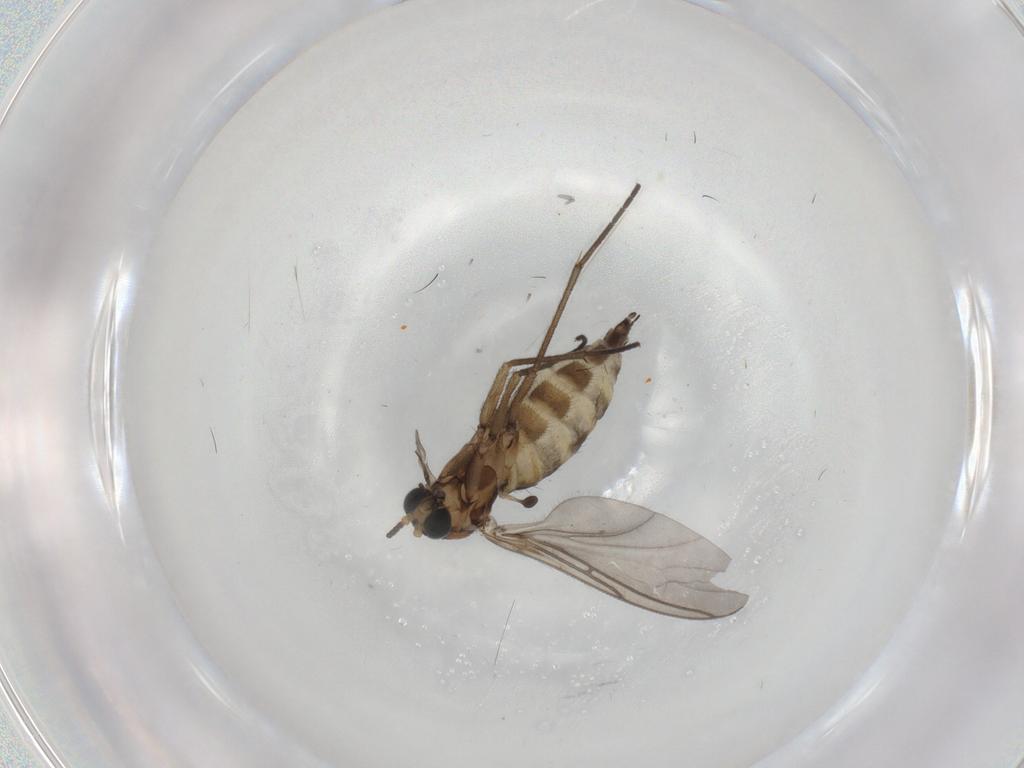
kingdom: Animalia
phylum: Arthropoda
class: Insecta
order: Diptera
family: Sciaridae
